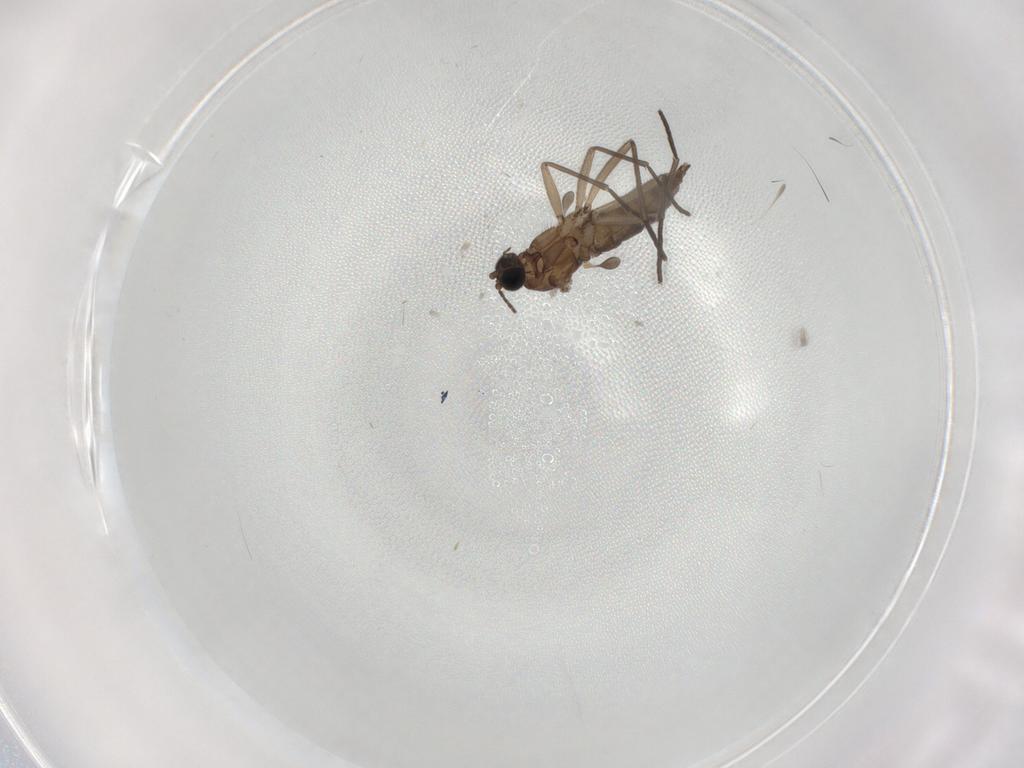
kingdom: Animalia
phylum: Arthropoda
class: Insecta
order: Diptera
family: Sciaridae
